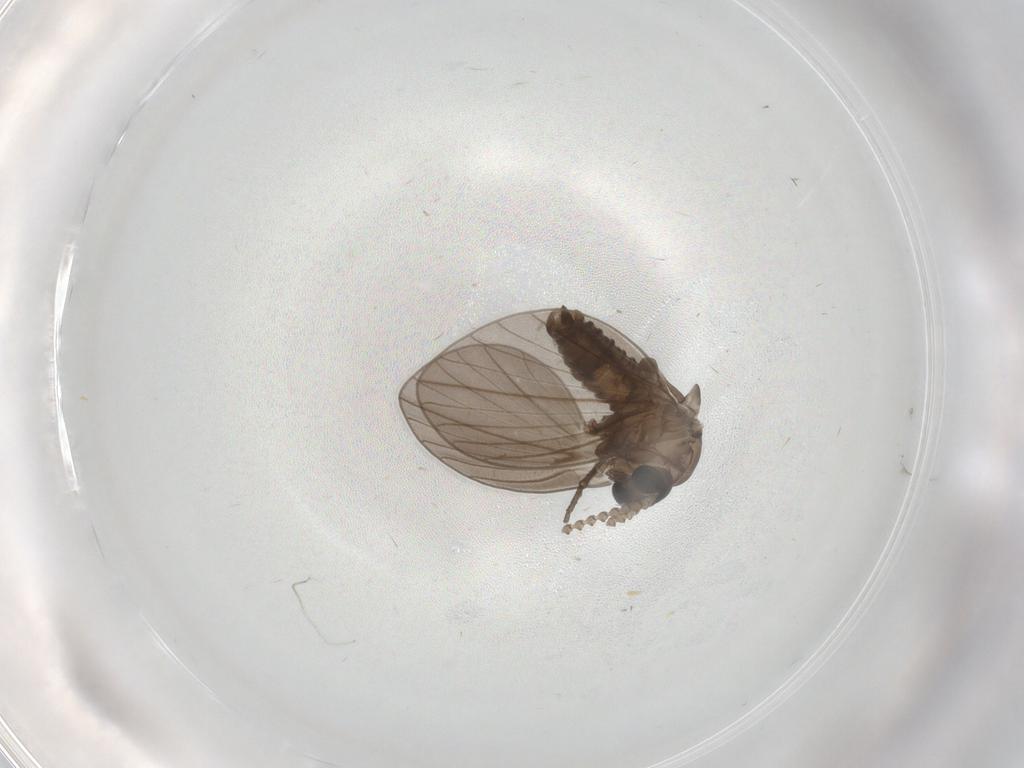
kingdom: Animalia
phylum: Arthropoda
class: Insecta
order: Diptera
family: Psychodidae
